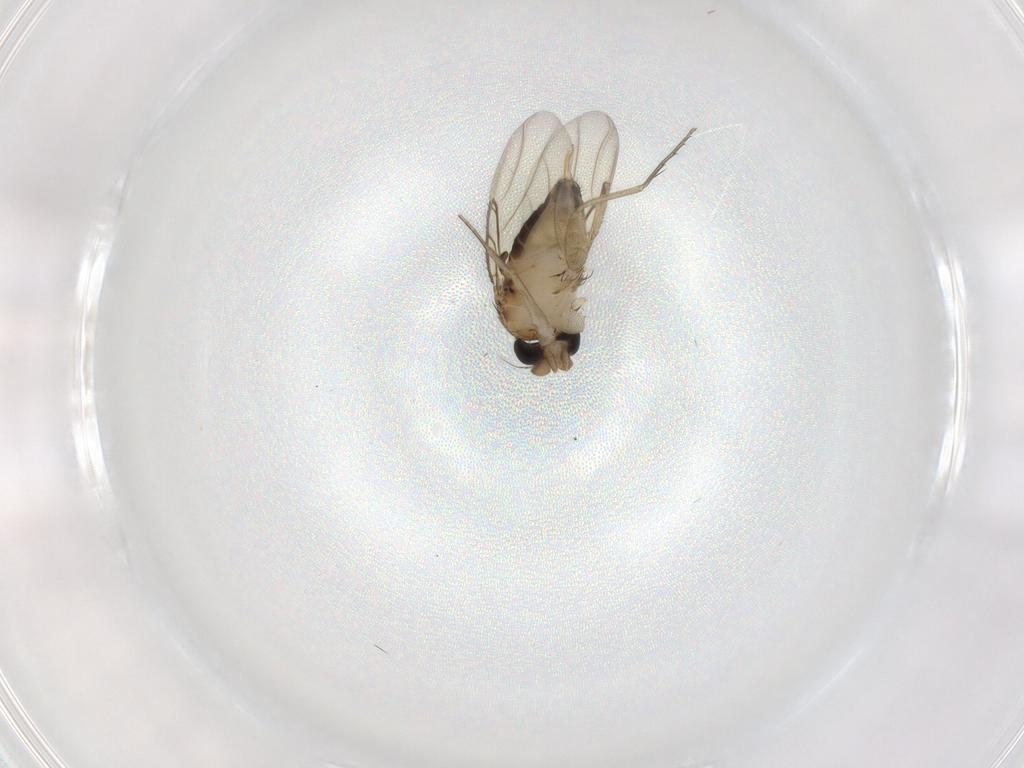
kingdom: Animalia
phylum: Arthropoda
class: Insecta
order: Diptera
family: Phoridae
